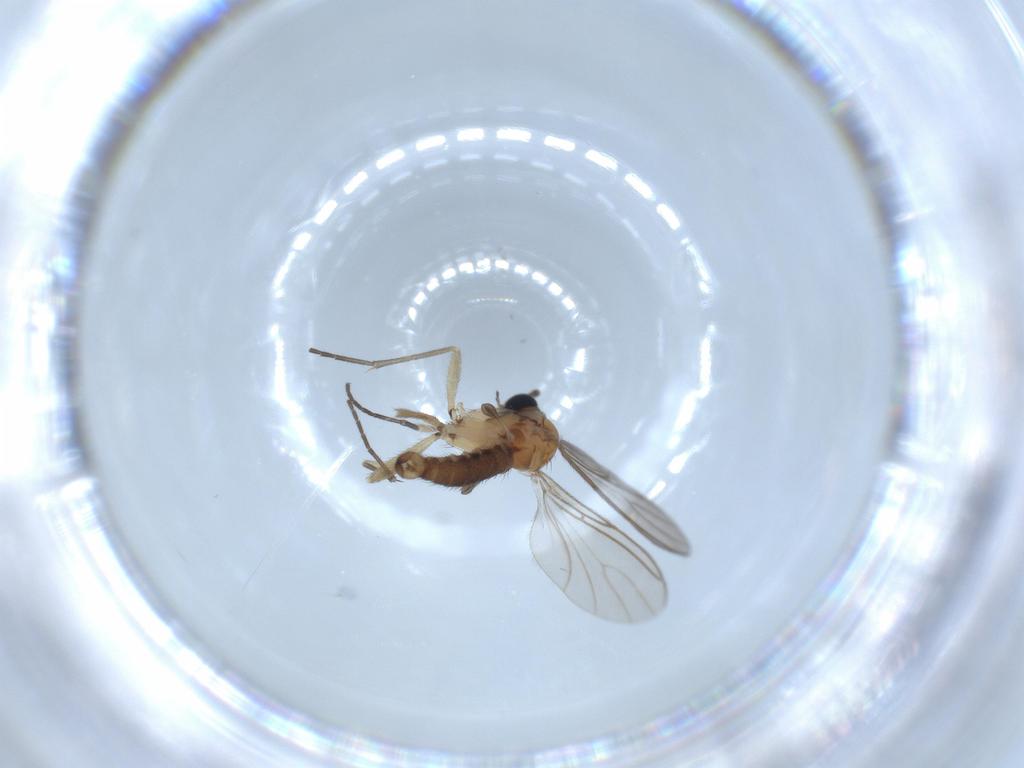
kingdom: Animalia
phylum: Arthropoda
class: Insecta
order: Diptera
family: Sciaridae
